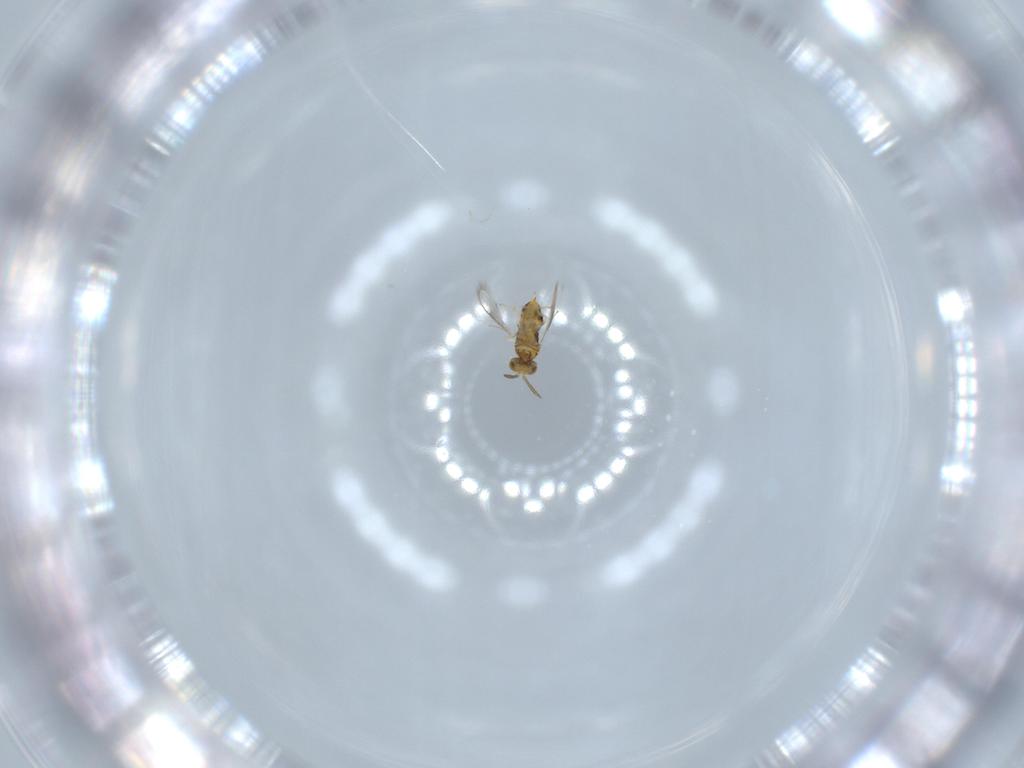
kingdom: Animalia
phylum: Arthropoda
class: Insecta
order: Hymenoptera
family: Aphelinidae
